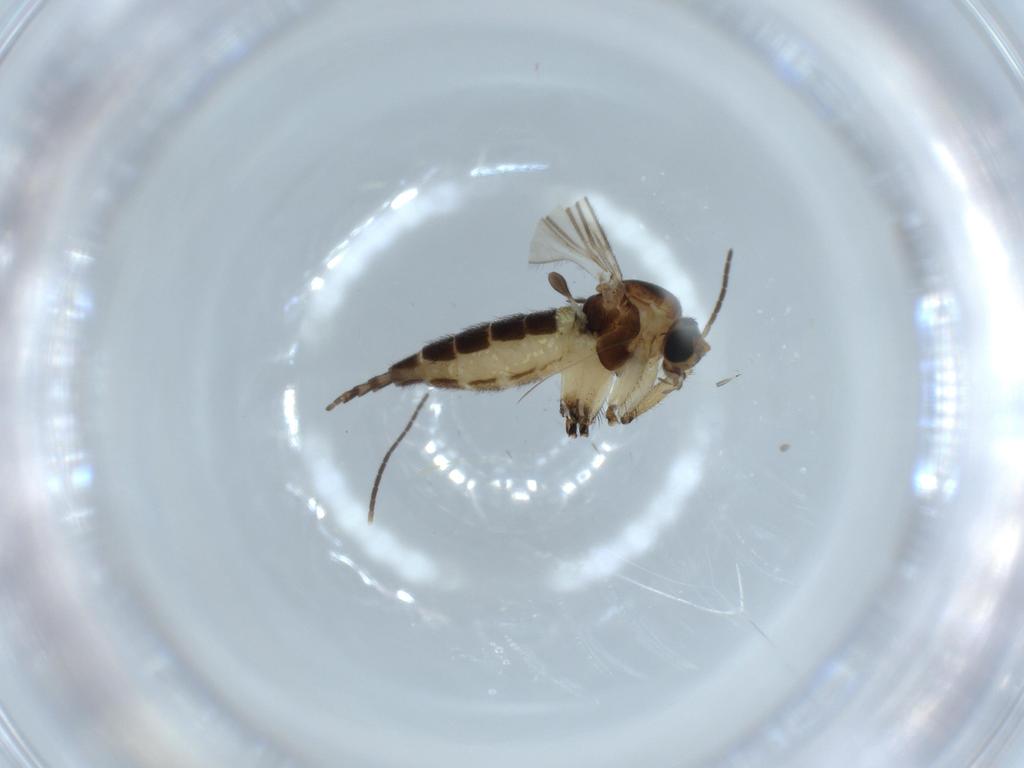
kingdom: Animalia
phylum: Arthropoda
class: Insecta
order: Diptera
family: Sciaridae
